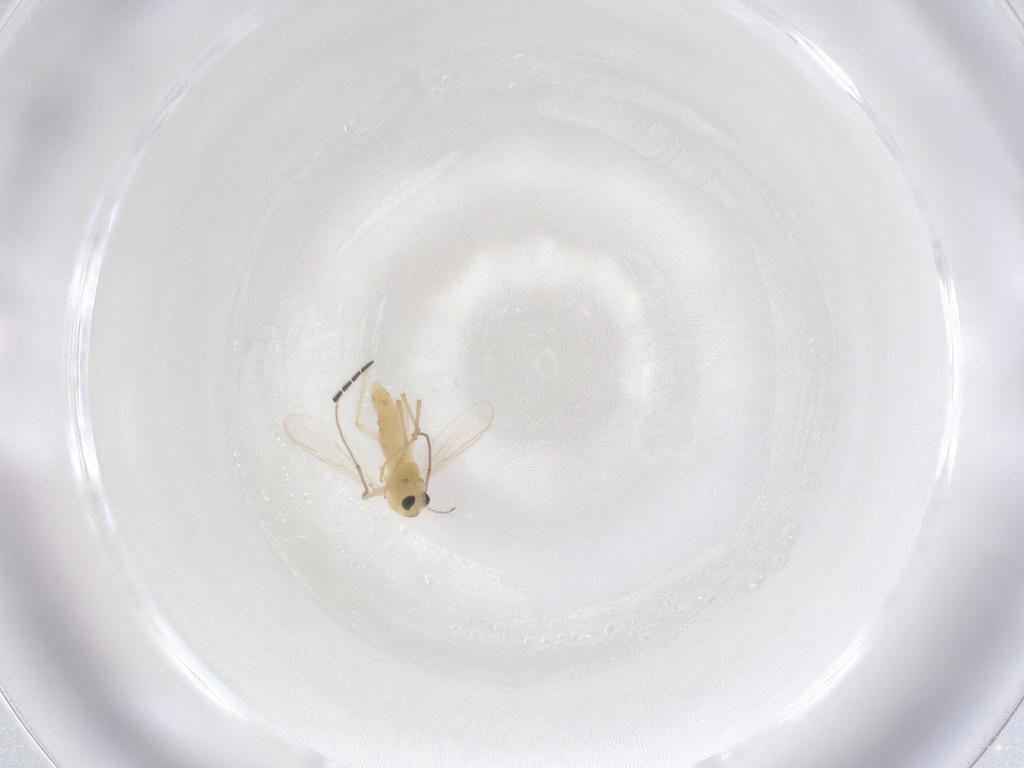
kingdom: Animalia
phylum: Arthropoda
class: Insecta
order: Diptera
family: Chironomidae
